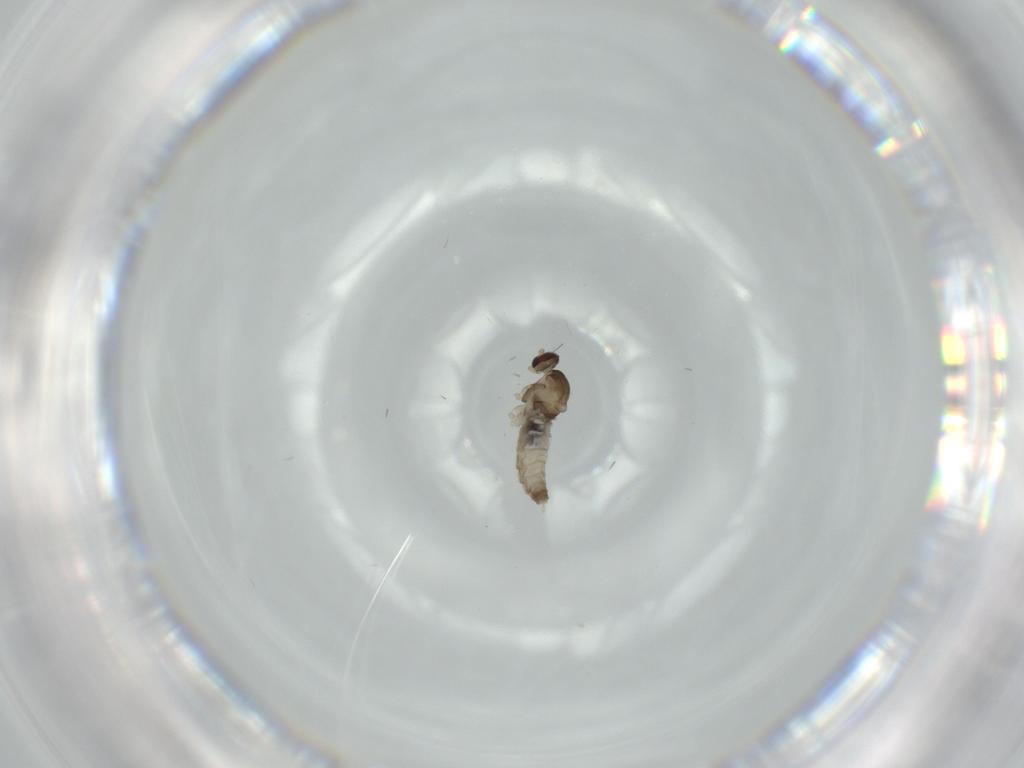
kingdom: Animalia
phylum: Arthropoda
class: Insecta
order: Diptera
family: Cecidomyiidae
